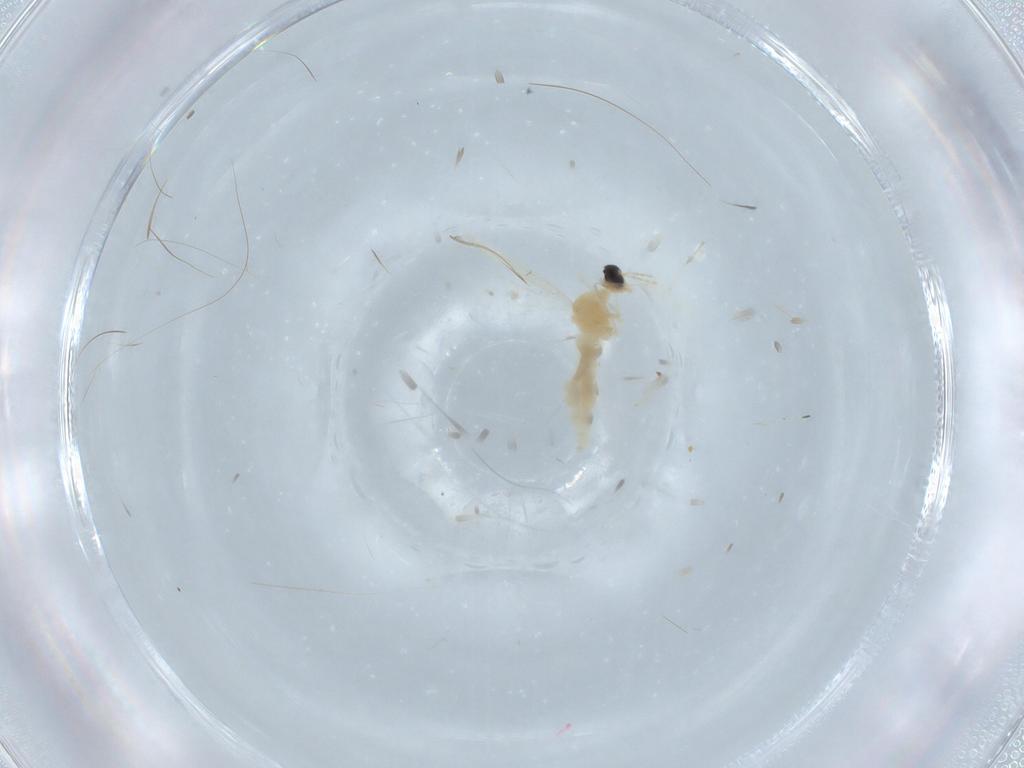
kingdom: Animalia
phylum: Arthropoda
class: Insecta
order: Diptera
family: Cecidomyiidae
